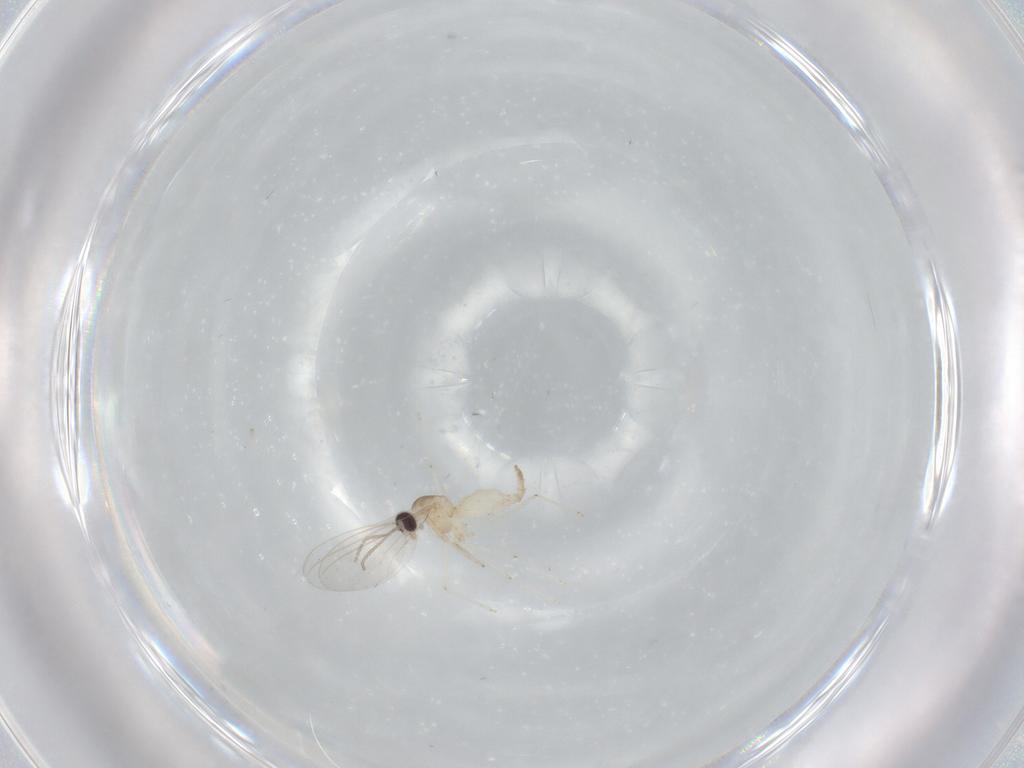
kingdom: Animalia
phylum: Arthropoda
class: Insecta
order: Diptera
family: Cecidomyiidae
